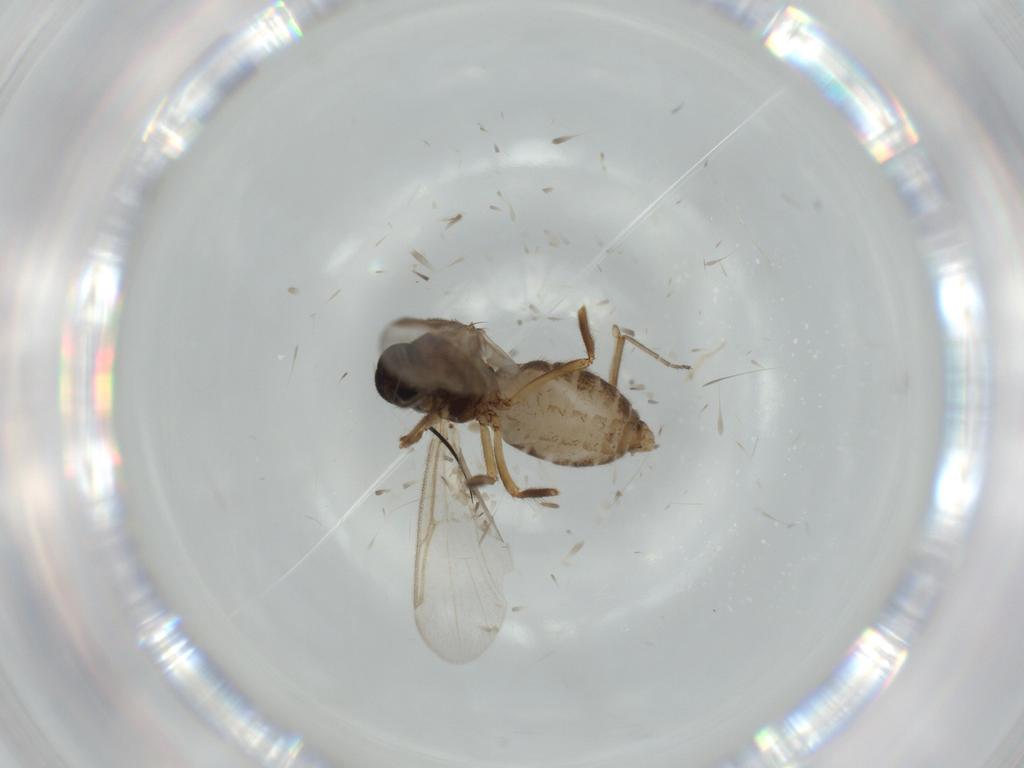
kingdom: Animalia
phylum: Arthropoda
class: Insecta
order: Diptera
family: Ceratopogonidae
